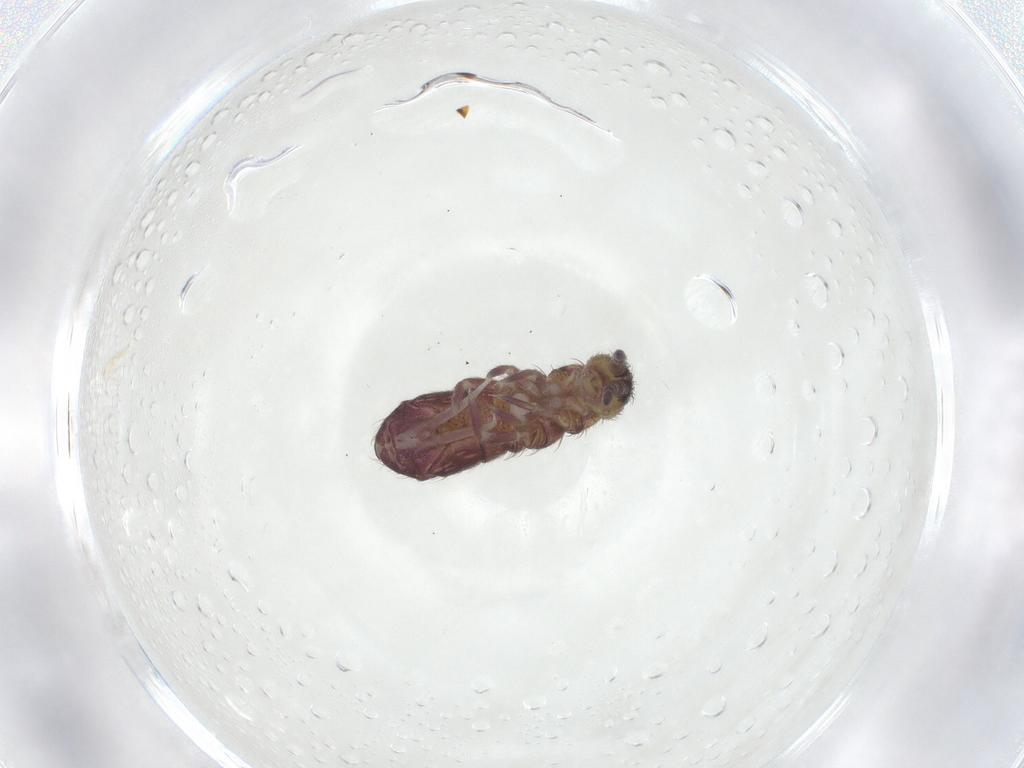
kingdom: Animalia
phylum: Arthropoda
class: Collembola
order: Entomobryomorpha
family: Isotomidae
